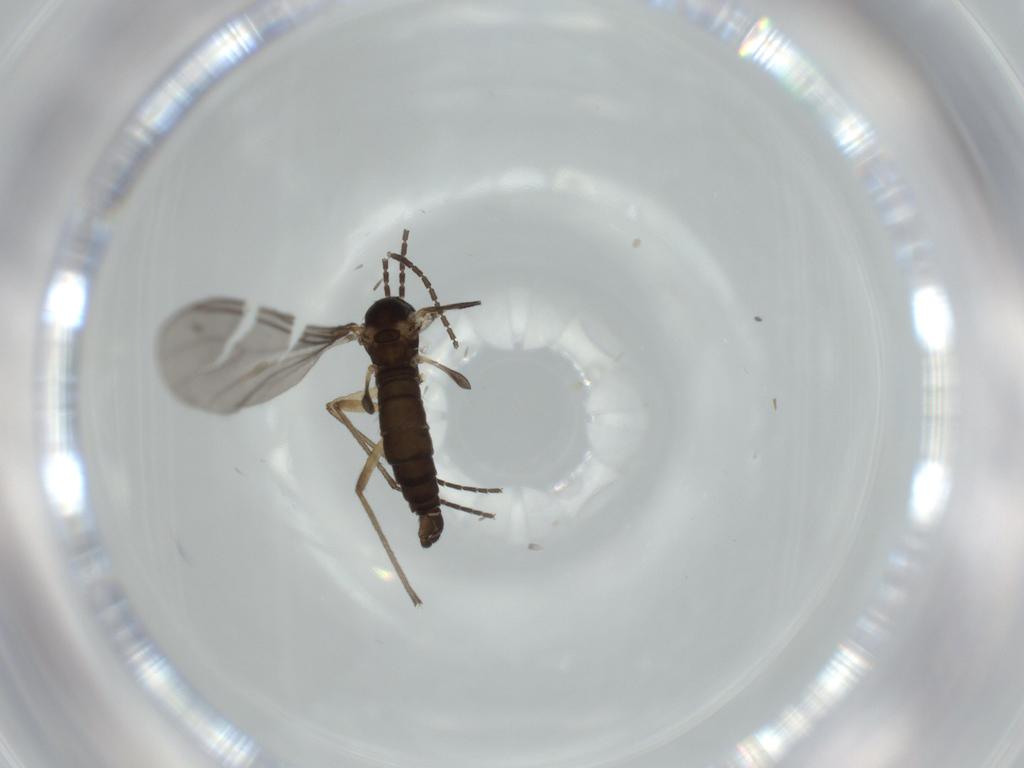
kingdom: Animalia
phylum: Arthropoda
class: Insecta
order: Diptera
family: Sciaridae
